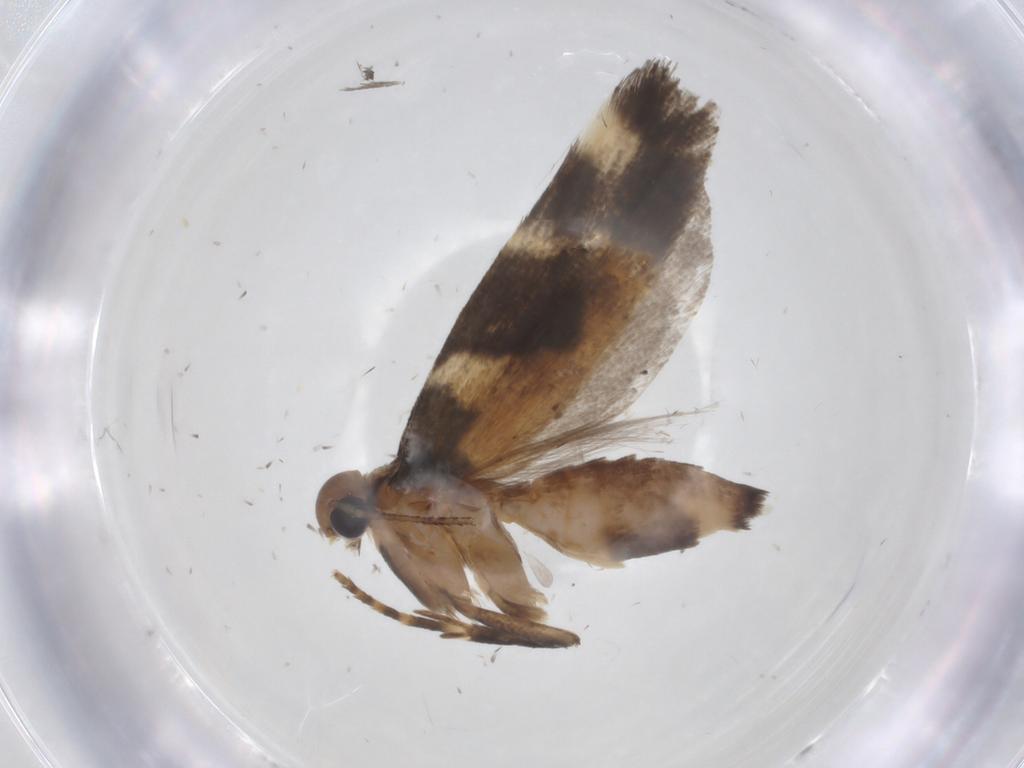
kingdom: Animalia
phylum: Arthropoda
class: Insecta
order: Lepidoptera
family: Gelechiidae
